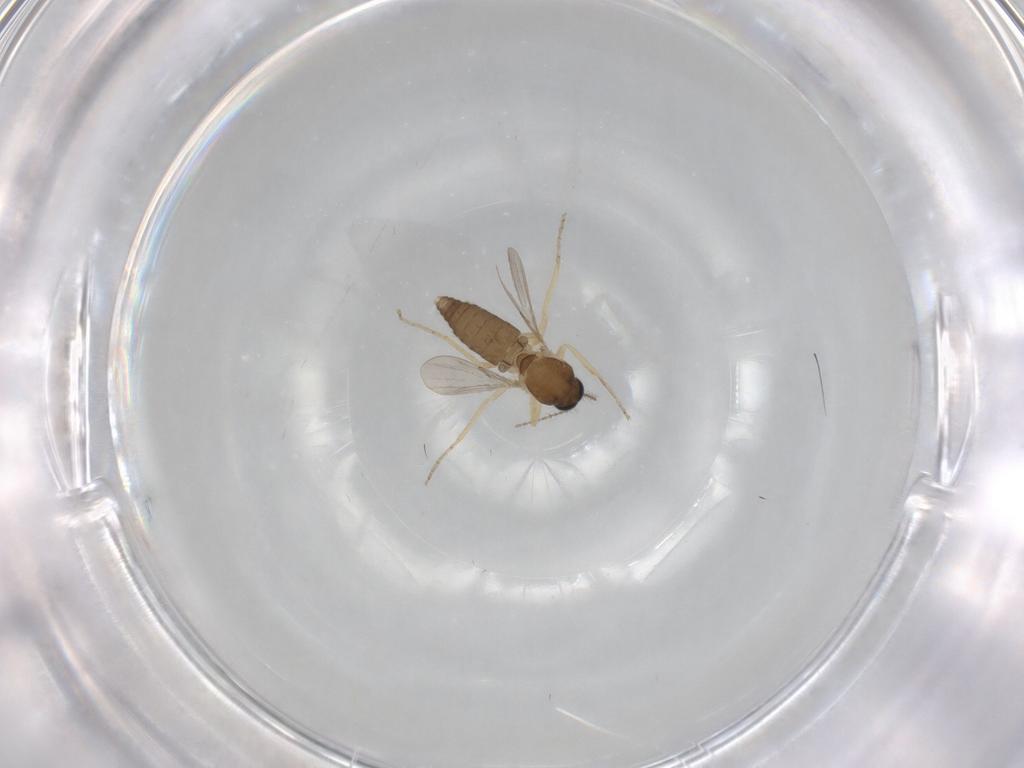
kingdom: Animalia
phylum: Arthropoda
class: Insecta
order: Diptera
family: Ceratopogonidae
